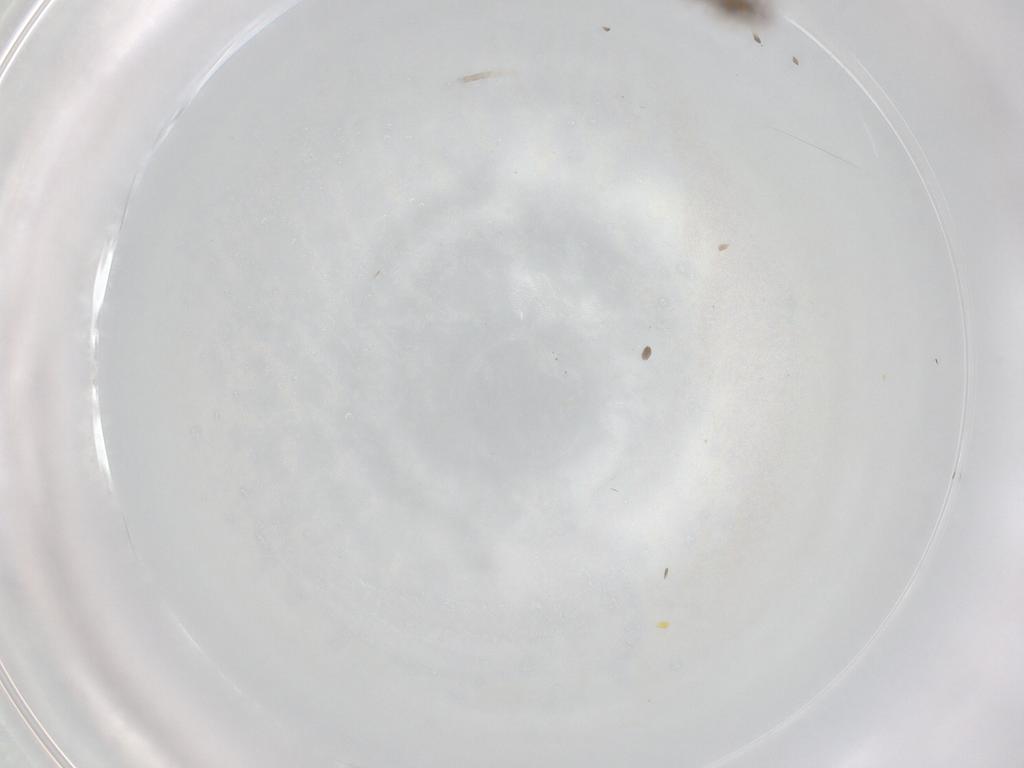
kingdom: Animalia
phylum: Arthropoda
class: Insecta
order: Diptera
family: Cecidomyiidae
